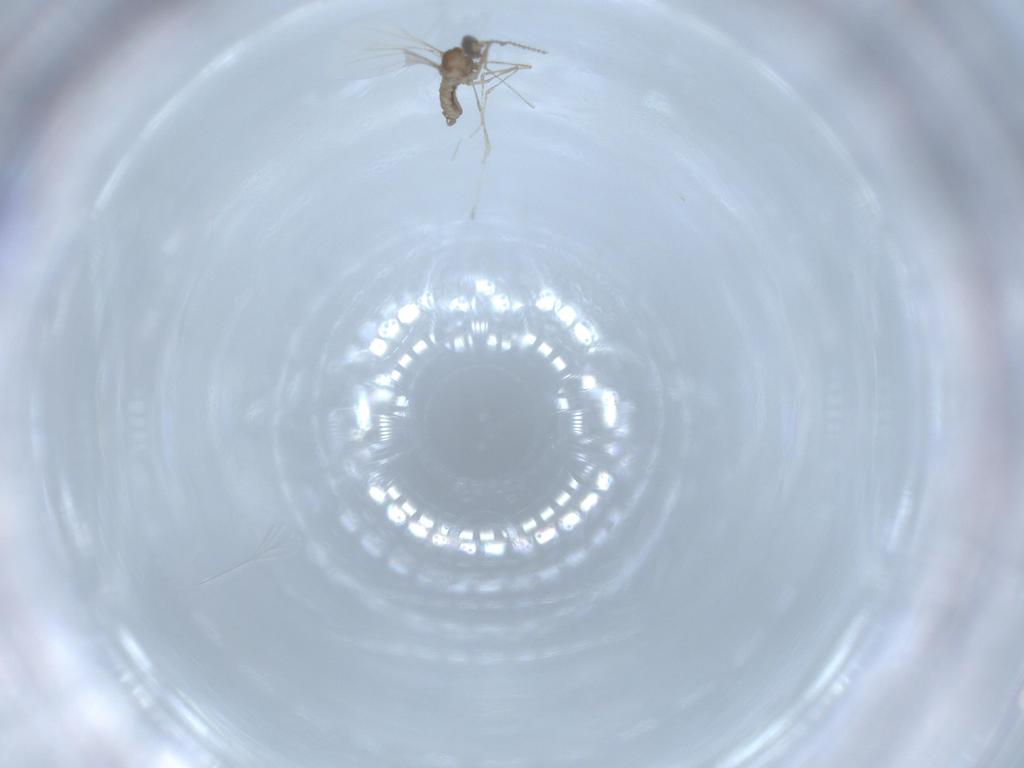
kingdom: Animalia
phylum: Arthropoda
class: Insecta
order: Diptera
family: Cecidomyiidae
